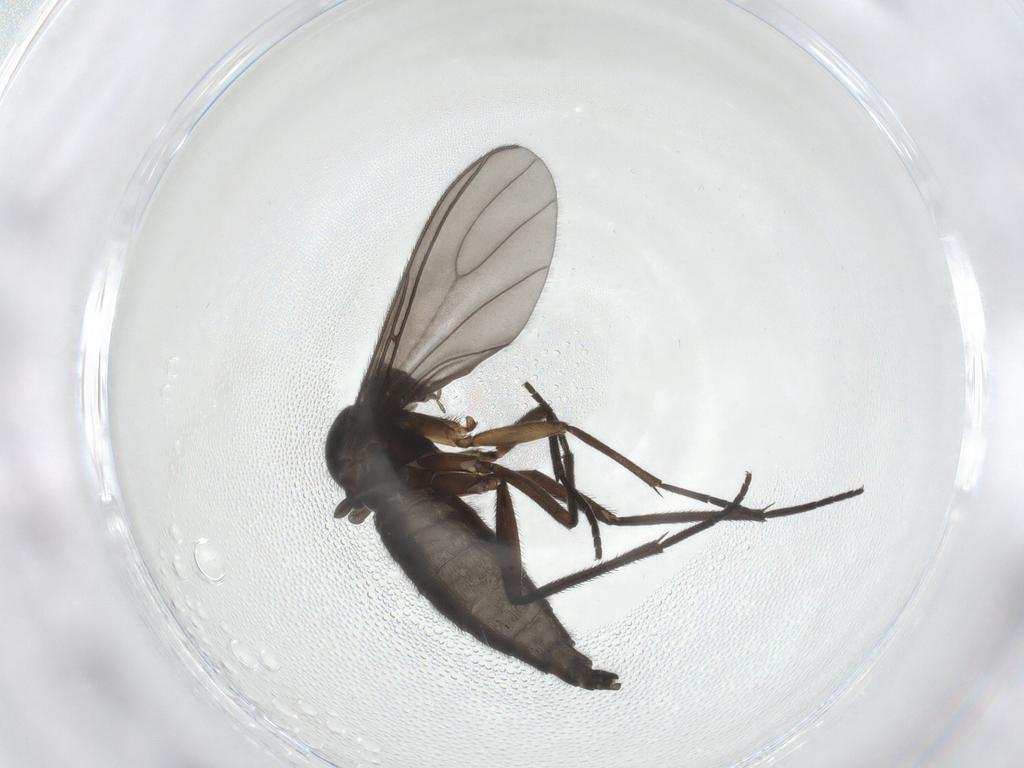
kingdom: Animalia
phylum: Arthropoda
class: Insecta
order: Diptera
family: Sciaridae
